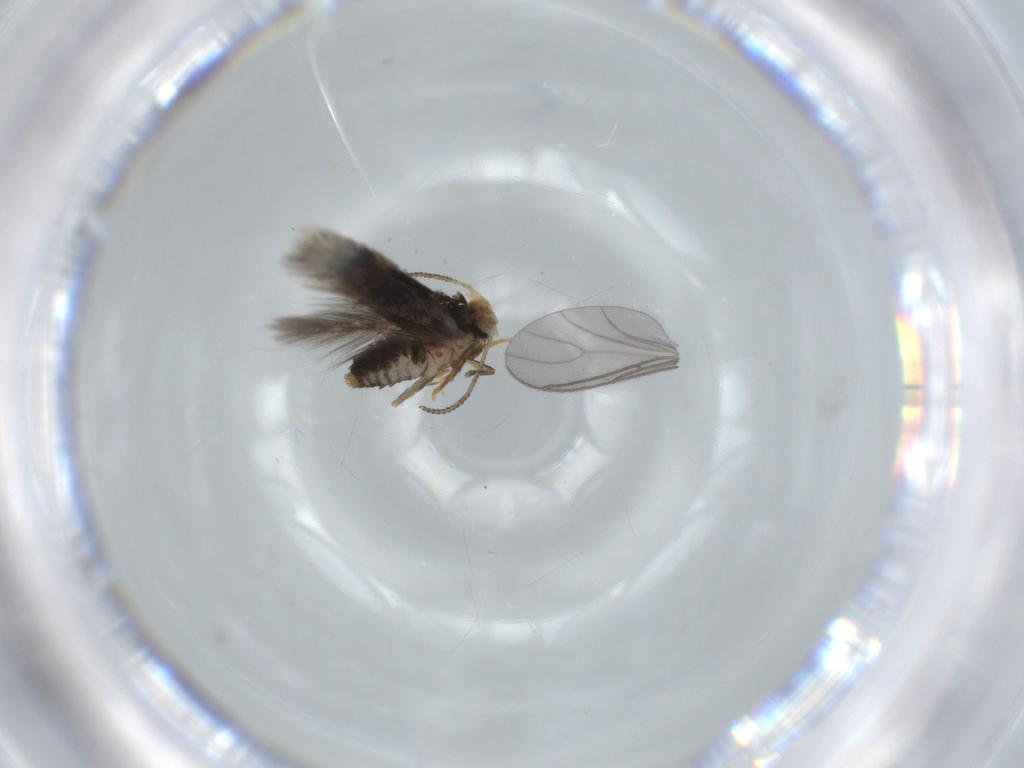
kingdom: Animalia
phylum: Arthropoda
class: Insecta
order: Lepidoptera
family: Nepticulidae
